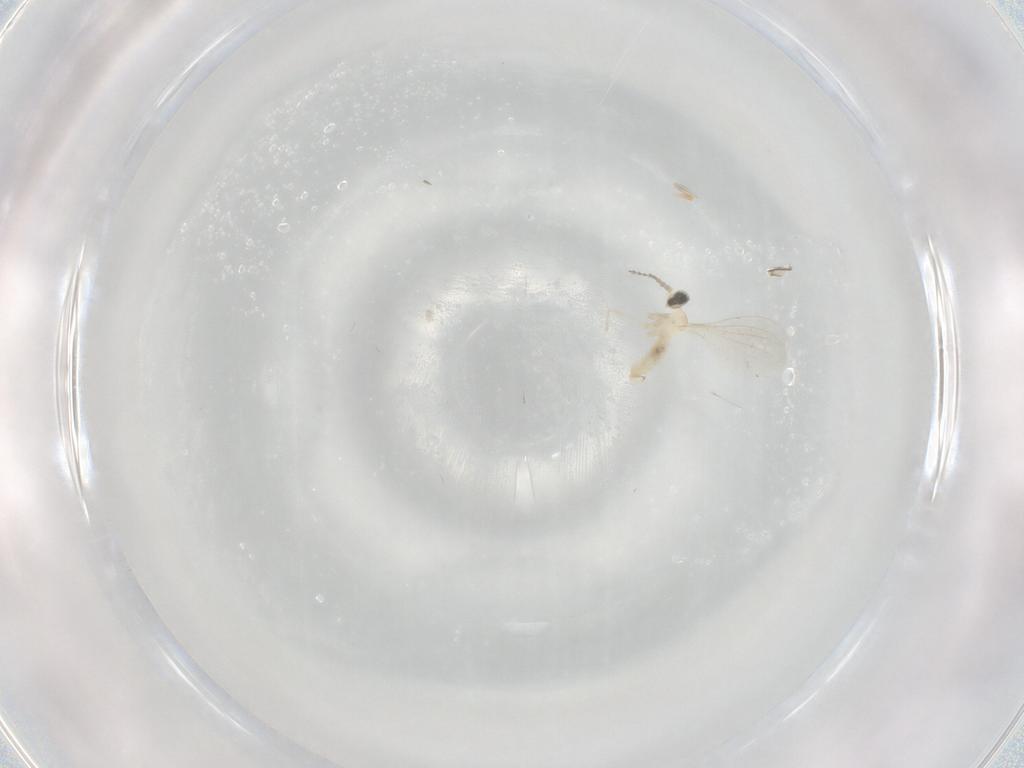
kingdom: Animalia
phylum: Arthropoda
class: Insecta
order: Diptera
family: Cecidomyiidae
